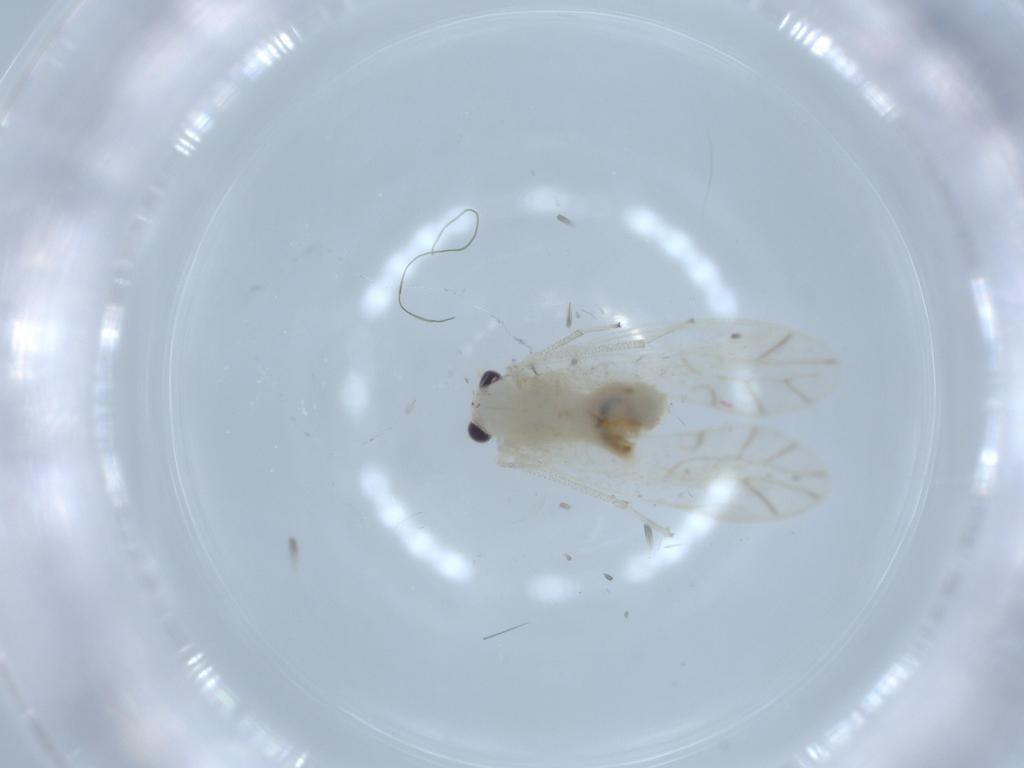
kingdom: Animalia
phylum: Arthropoda
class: Insecta
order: Psocodea
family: Caeciliusidae
